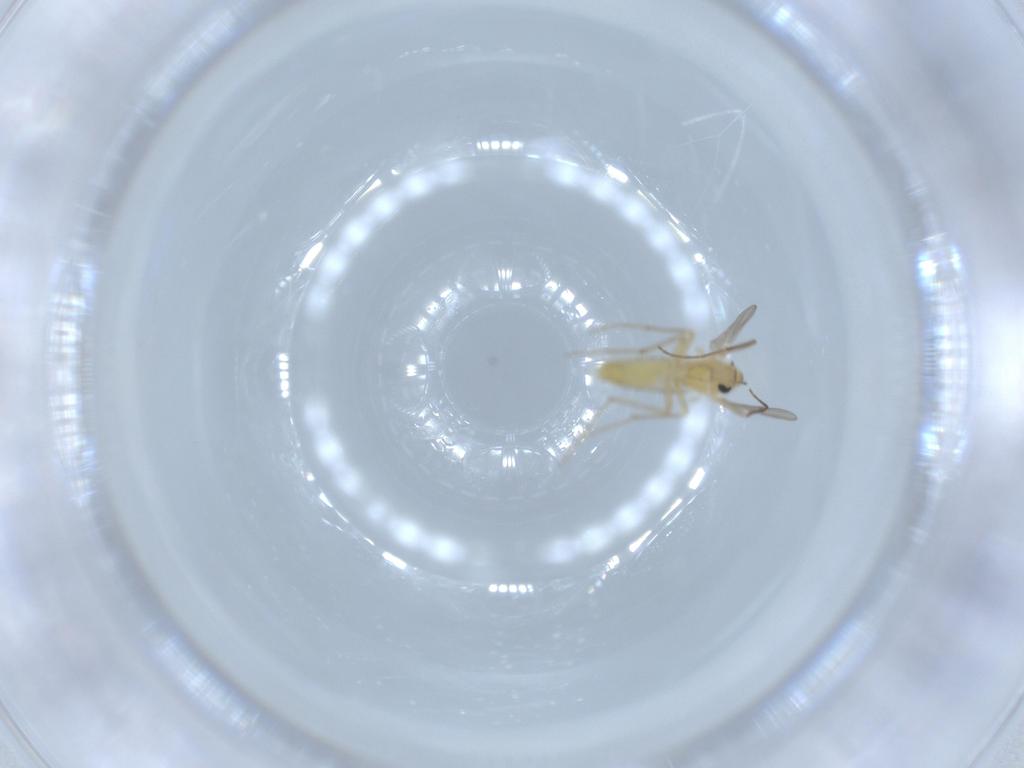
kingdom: Animalia
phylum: Arthropoda
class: Insecta
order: Diptera
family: Chironomidae
